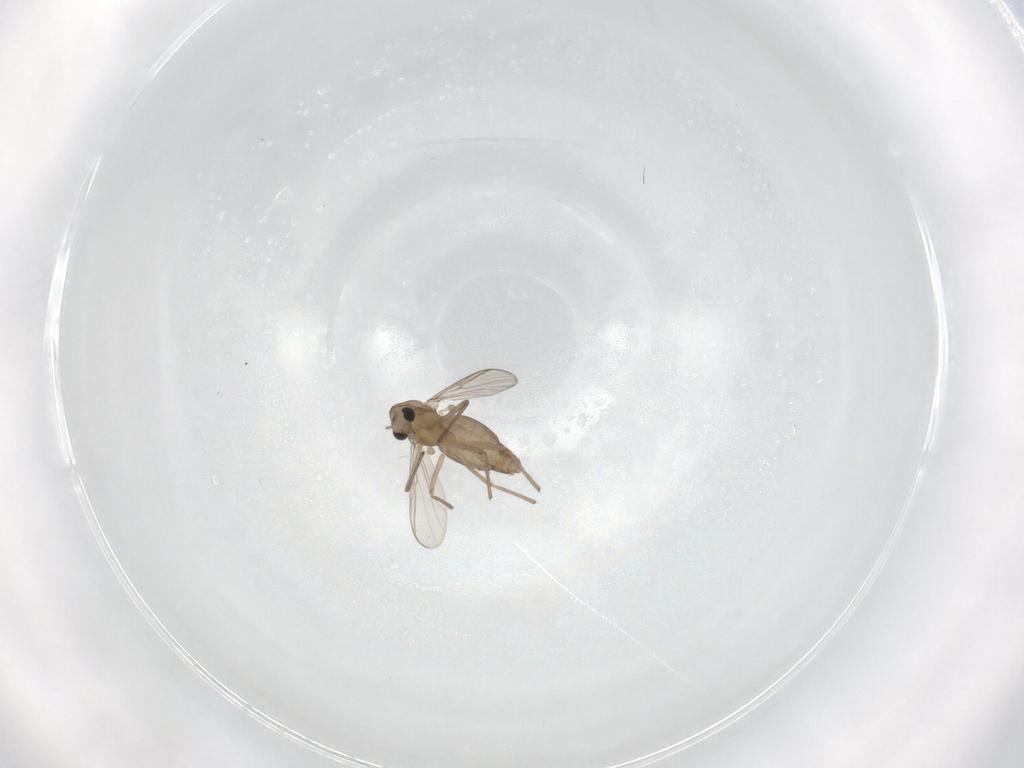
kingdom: Animalia
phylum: Arthropoda
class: Insecta
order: Diptera
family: Chironomidae
